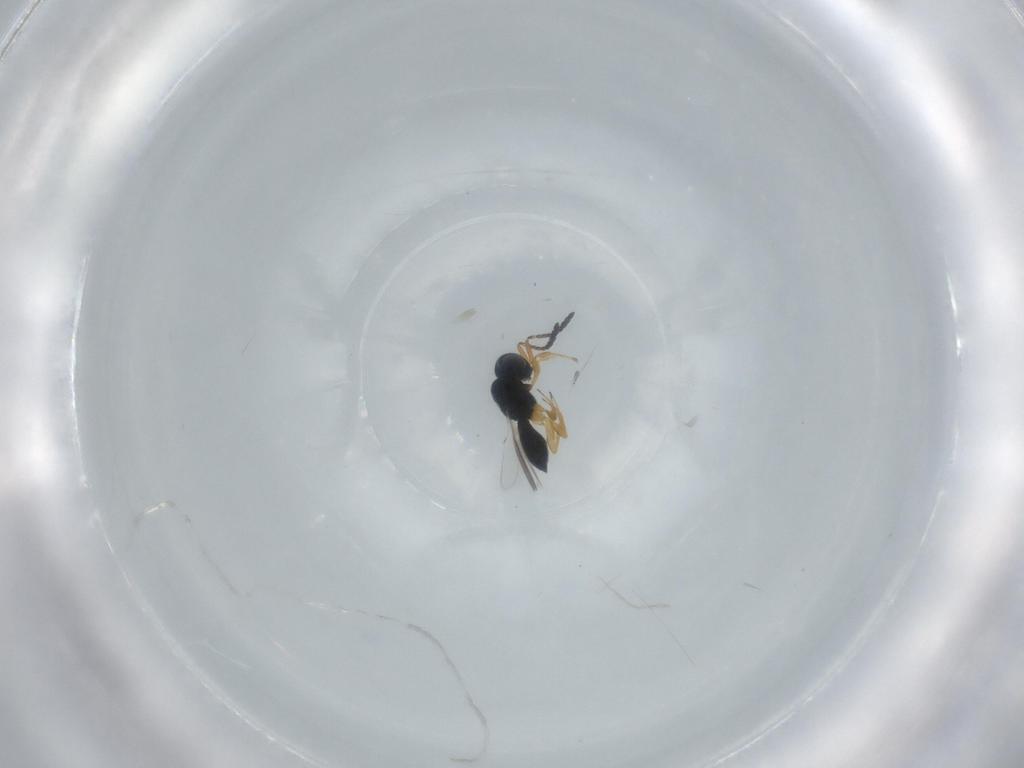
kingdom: Animalia
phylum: Arthropoda
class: Insecta
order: Hymenoptera
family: Scelionidae
